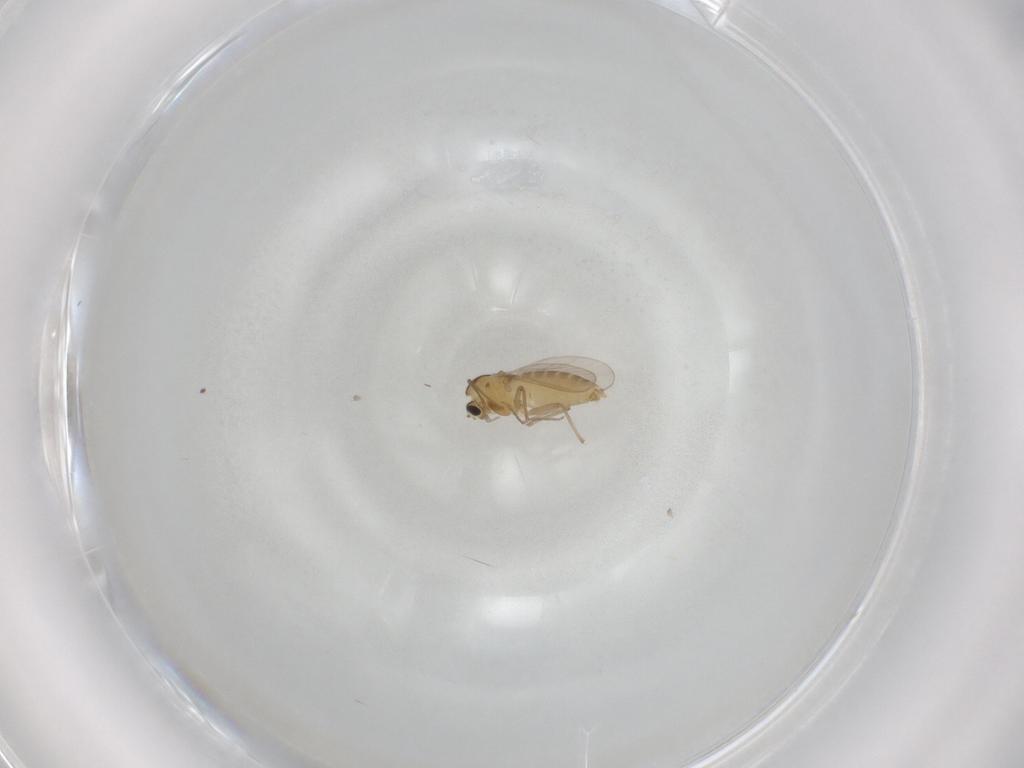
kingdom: Animalia
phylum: Arthropoda
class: Insecta
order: Diptera
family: Chironomidae
